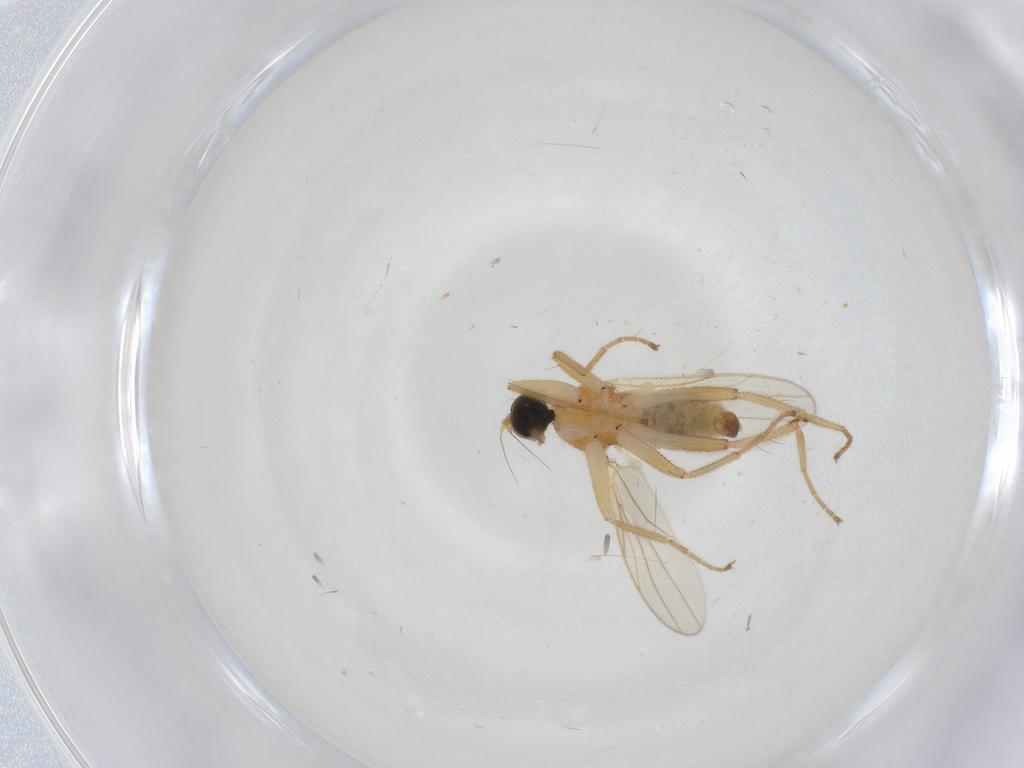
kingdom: Animalia
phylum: Arthropoda
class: Insecta
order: Diptera
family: Hybotidae
